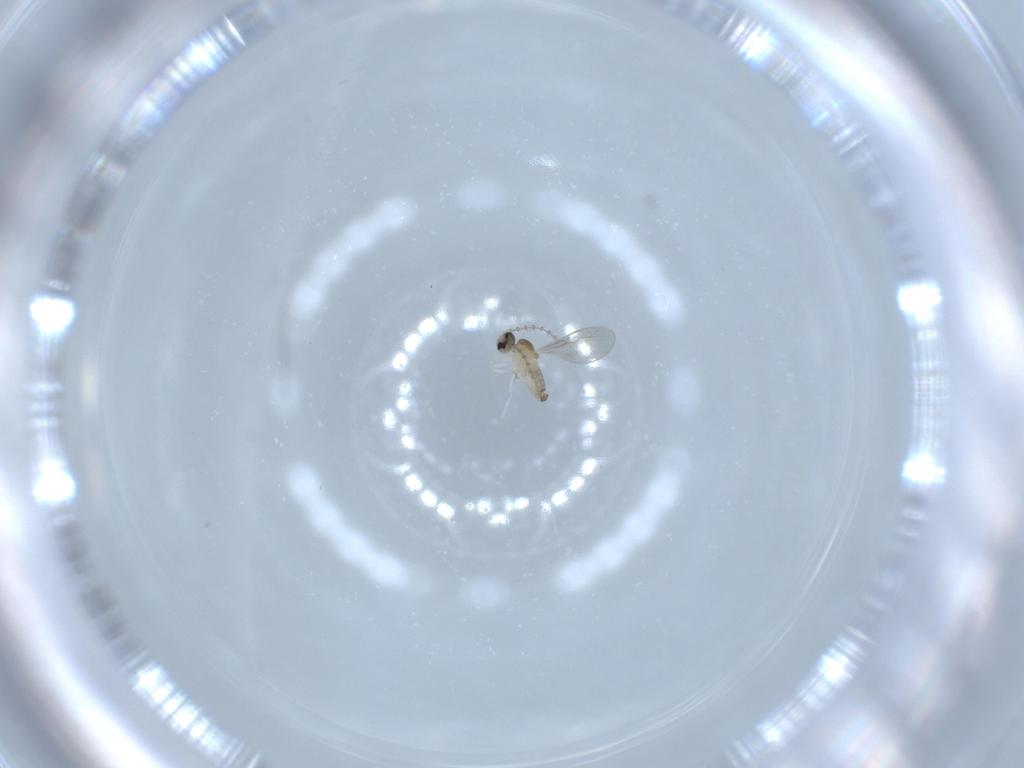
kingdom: Animalia
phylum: Arthropoda
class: Insecta
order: Diptera
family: Cecidomyiidae
